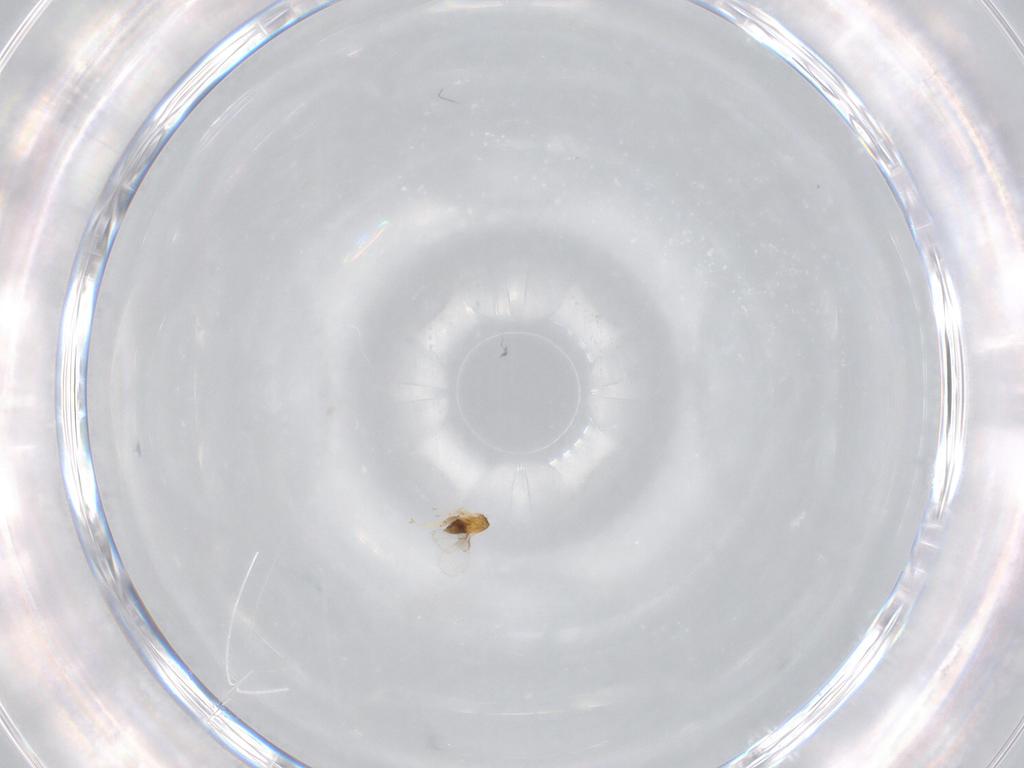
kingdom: Animalia
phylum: Arthropoda
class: Insecta
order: Hymenoptera
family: Trichogrammatidae
